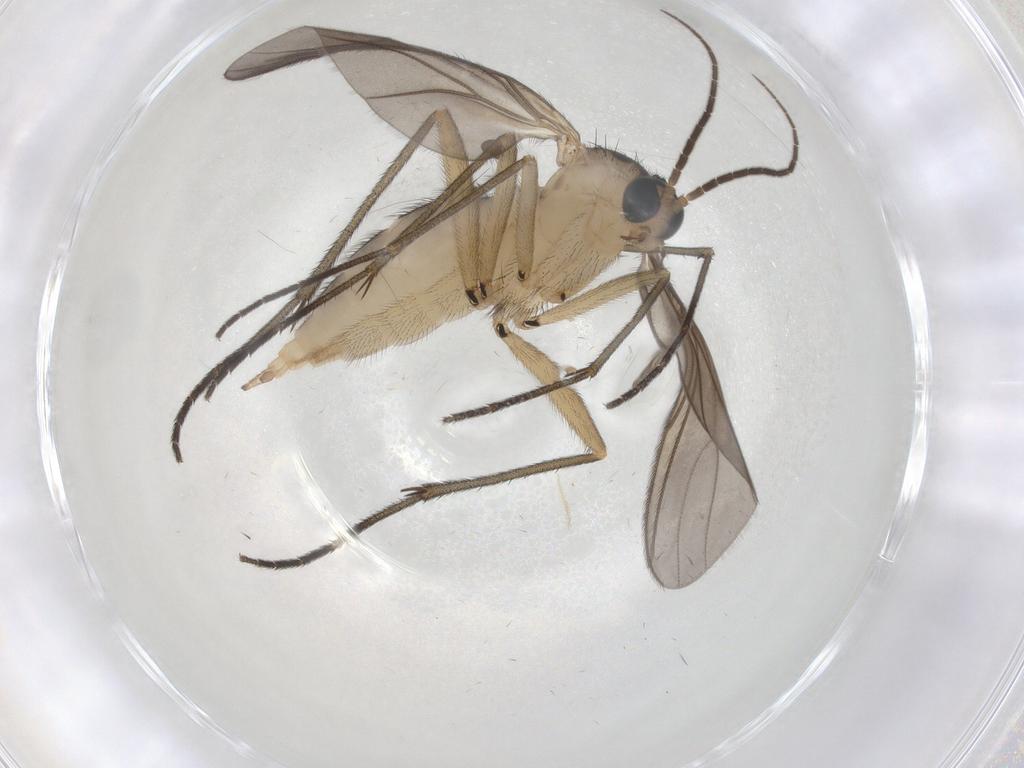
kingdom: Animalia
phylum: Arthropoda
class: Insecta
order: Diptera
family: Sciaridae
